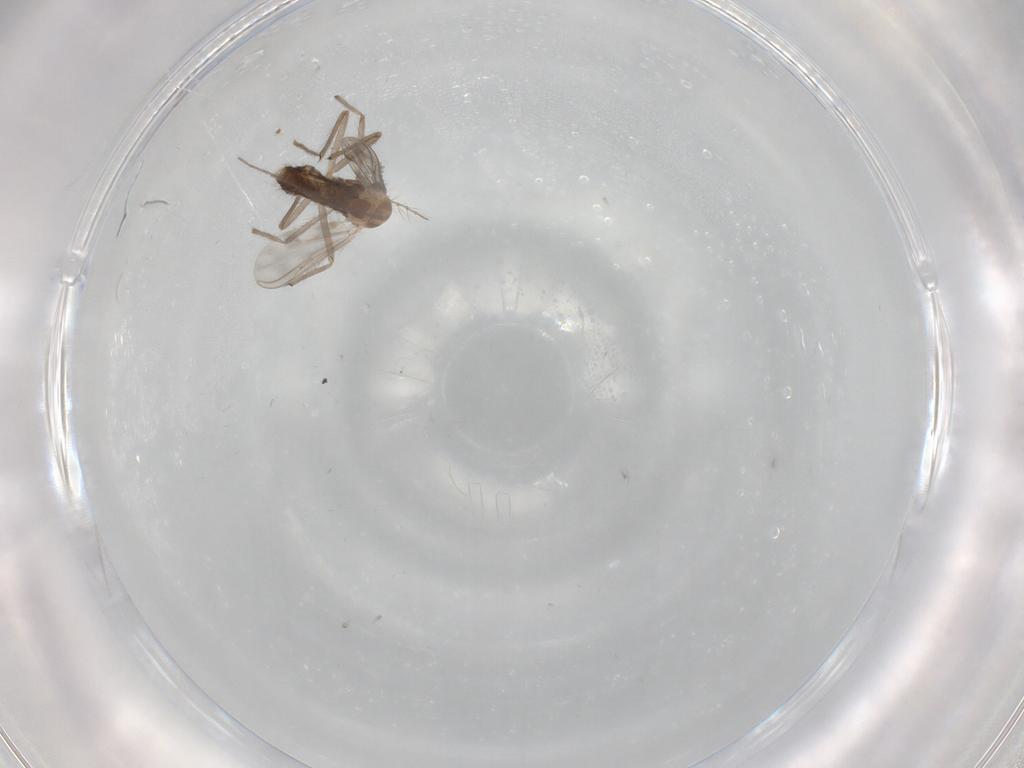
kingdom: Animalia
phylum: Arthropoda
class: Insecta
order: Diptera
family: Chironomidae
